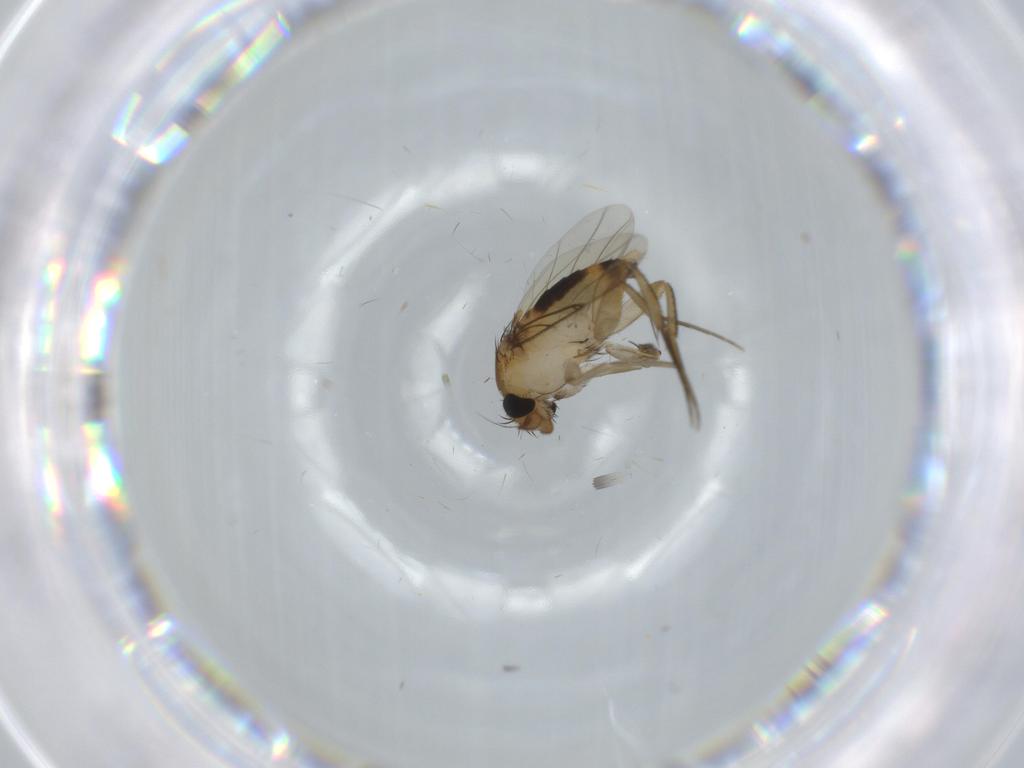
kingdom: Animalia
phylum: Arthropoda
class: Insecta
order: Diptera
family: Phoridae
